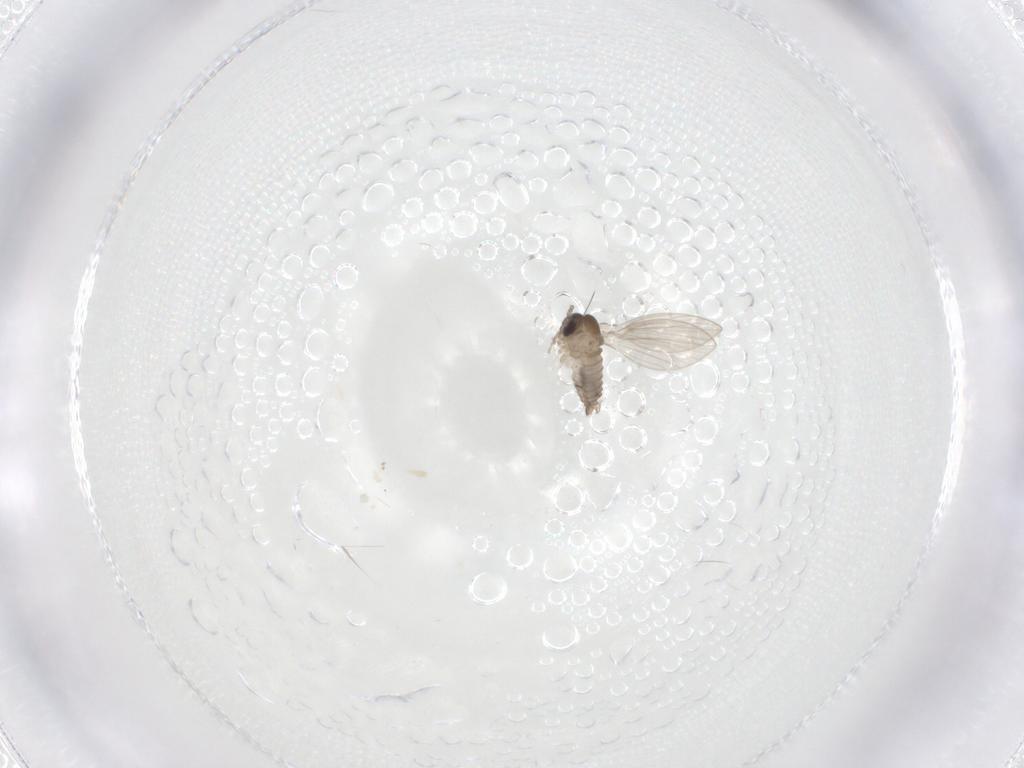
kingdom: Animalia
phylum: Arthropoda
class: Insecta
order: Diptera
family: Psychodidae
